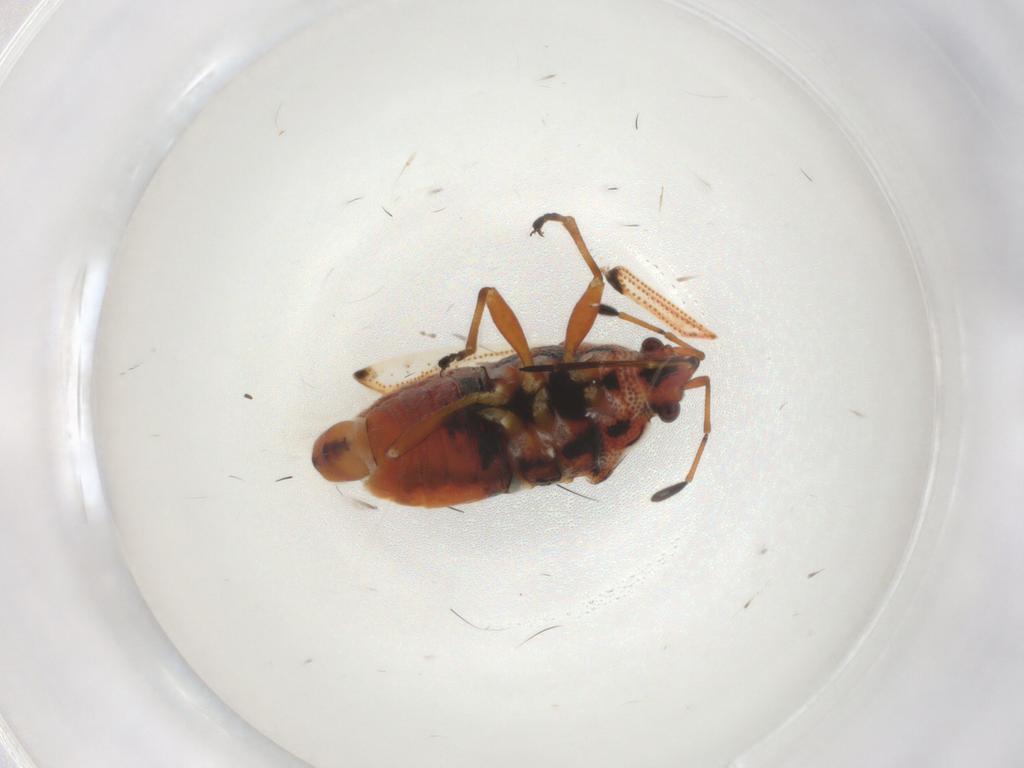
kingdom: Animalia
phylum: Arthropoda
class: Insecta
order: Hemiptera
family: Lygaeidae
